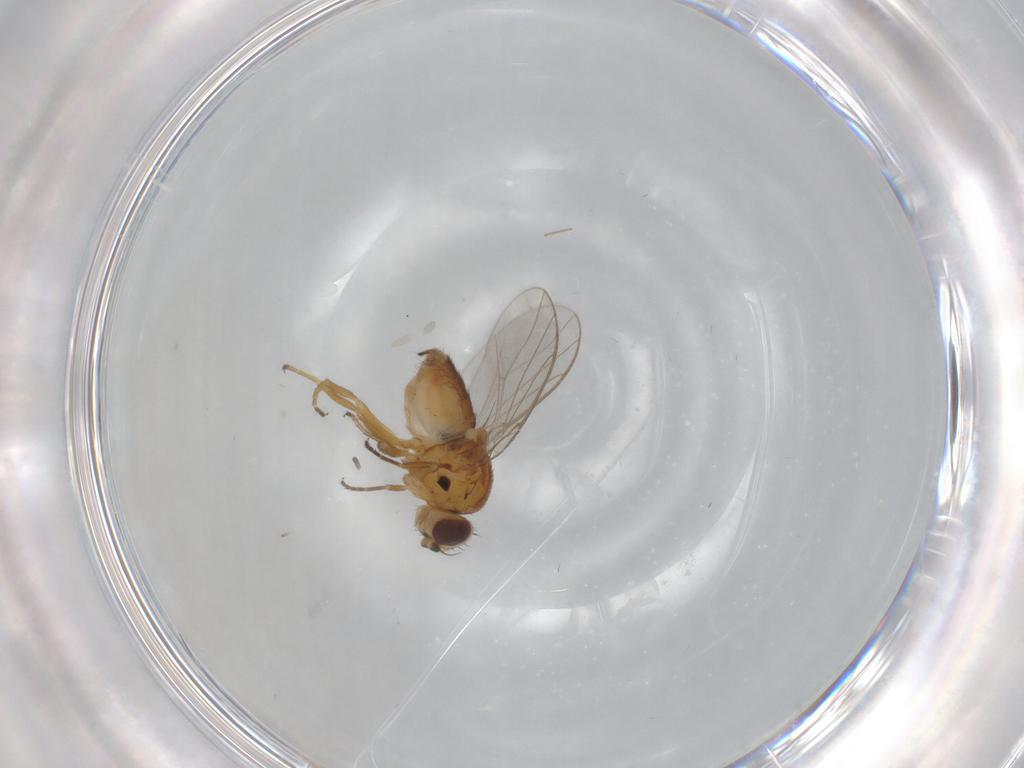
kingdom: Animalia
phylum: Arthropoda
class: Insecta
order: Diptera
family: Chloropidae
